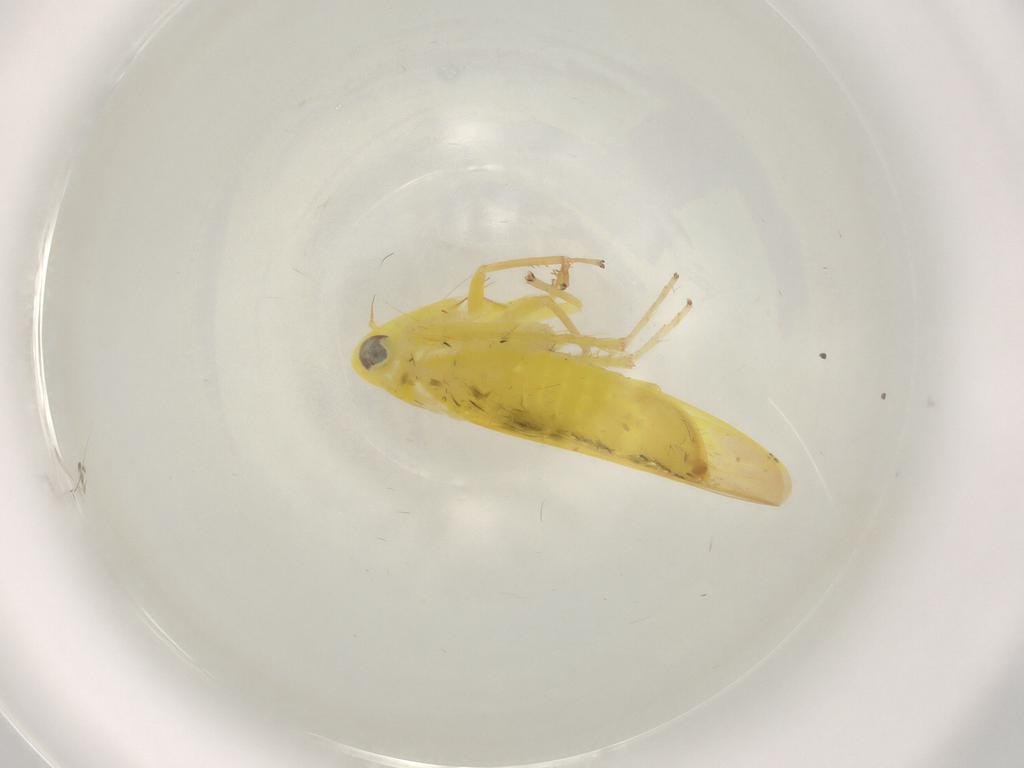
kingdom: Animalia
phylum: Arthropoda
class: Insecta
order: Hemiptera
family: Cicadellidae
